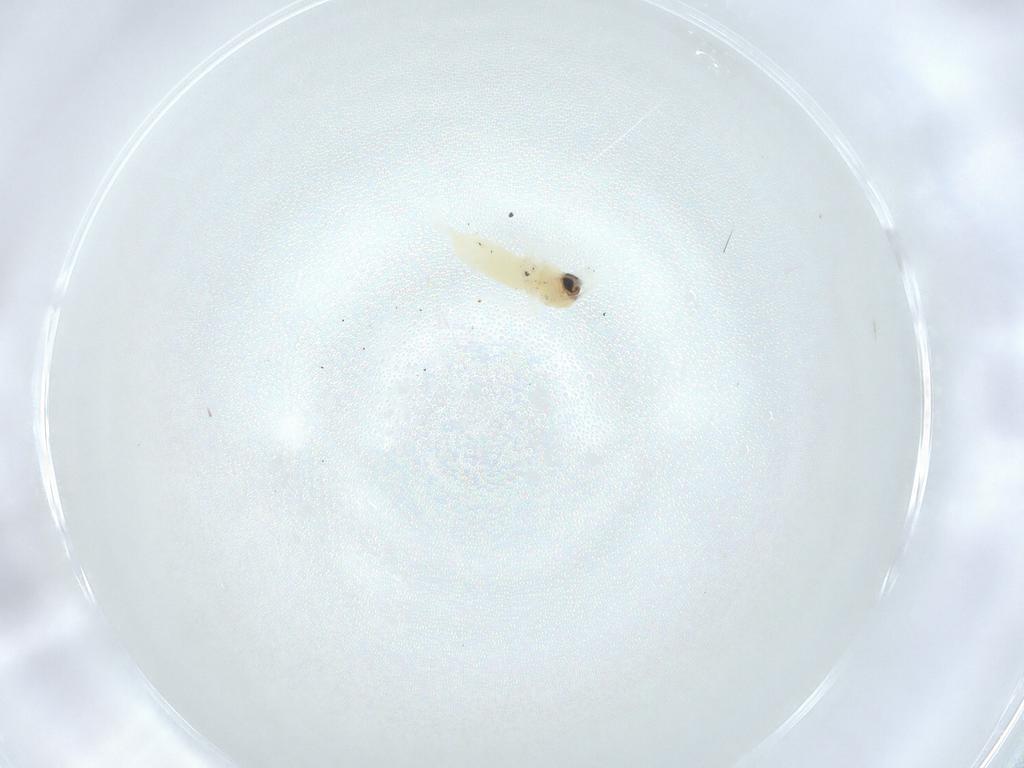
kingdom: Animalia
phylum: Arthropoda
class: Insecta
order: Lepidoptera
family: Tineidae
